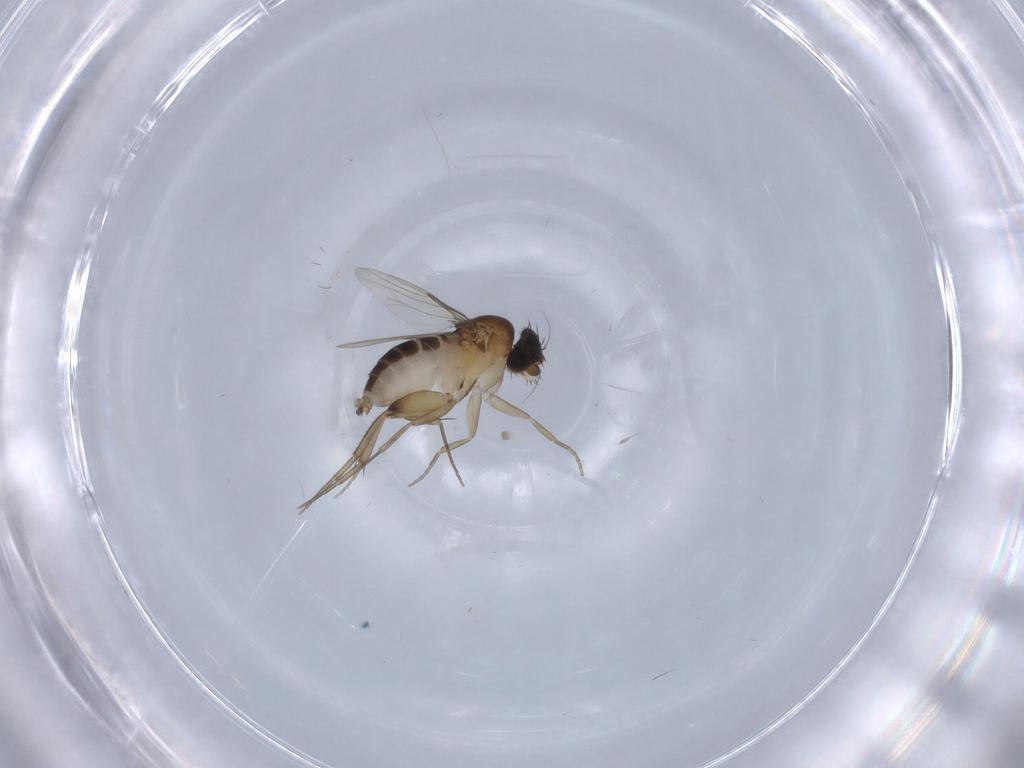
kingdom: Animalia
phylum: Arthropoda
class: Insecta
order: Diptera
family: Phoridae
